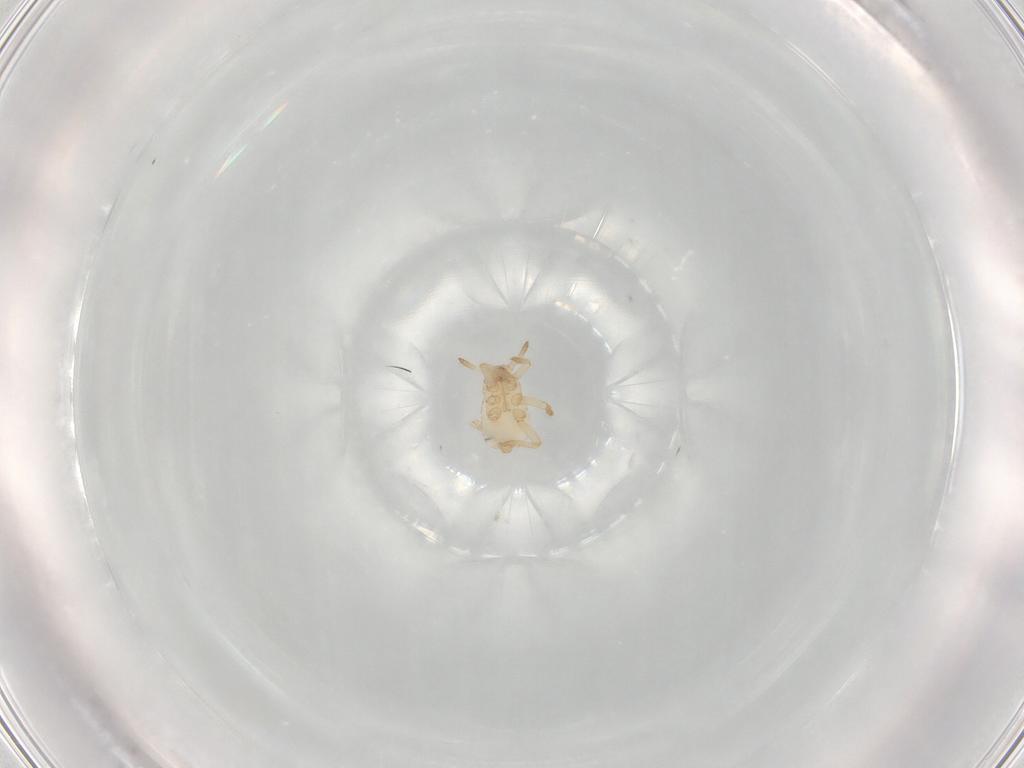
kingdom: Animalia
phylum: Arthropoda
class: Insecta
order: Hemiptera
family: Aphididae
